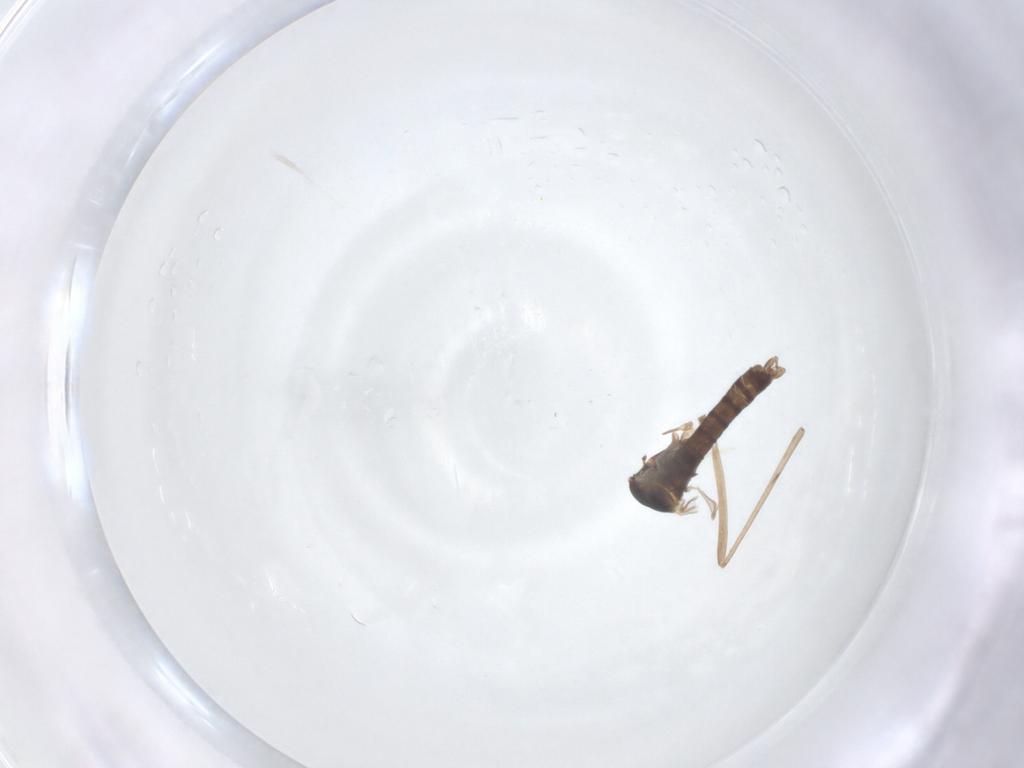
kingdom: Animalia
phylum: Arthropoda
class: Insecta
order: Diptera
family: Cecidomyiidae
